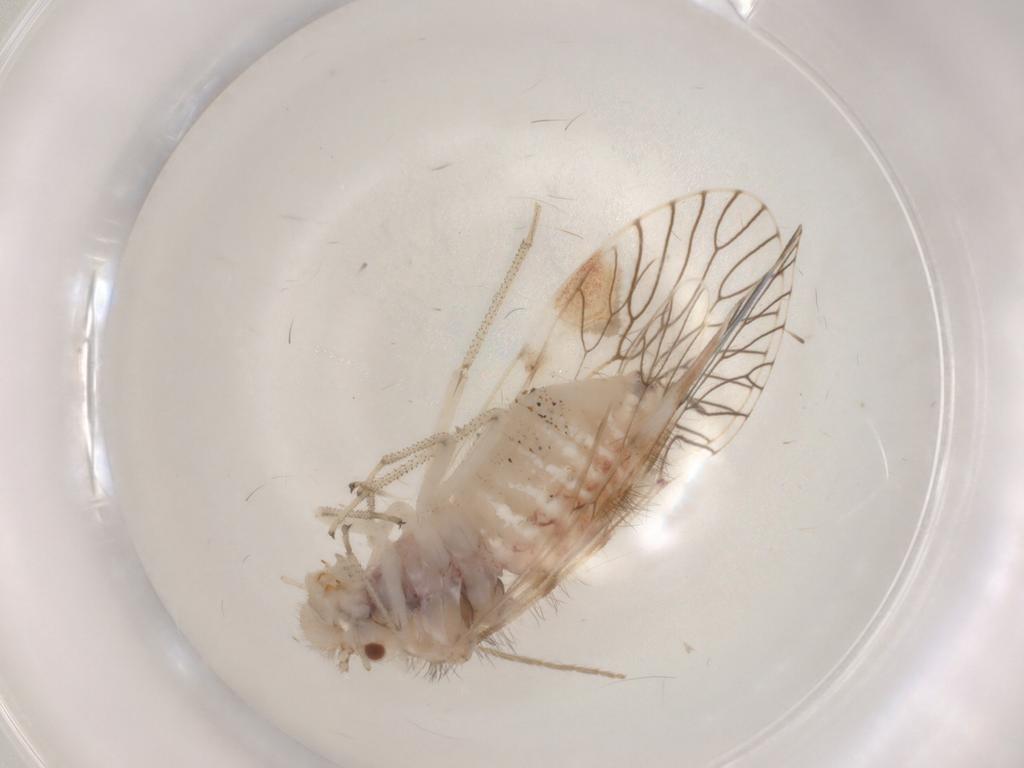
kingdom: Animalia
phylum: Arthropoda
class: Insecta
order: Psocodea
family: Amphipsocidae
